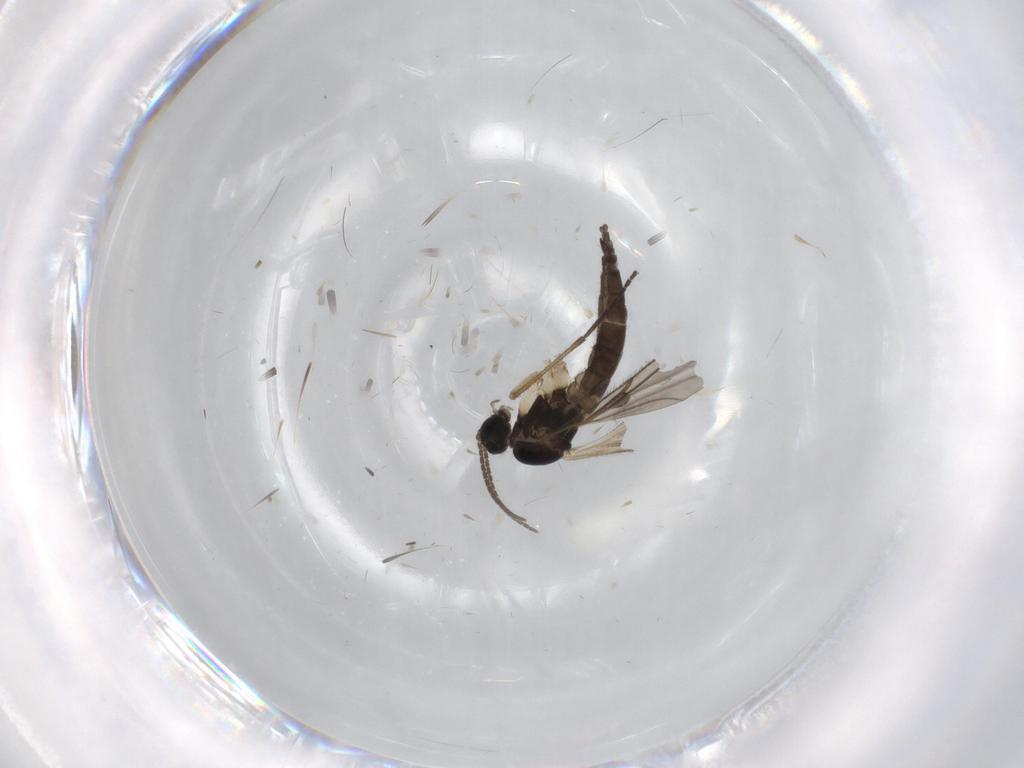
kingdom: Animalia
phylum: Arthropoda
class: Insecta
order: Diptera
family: Sciaridae
